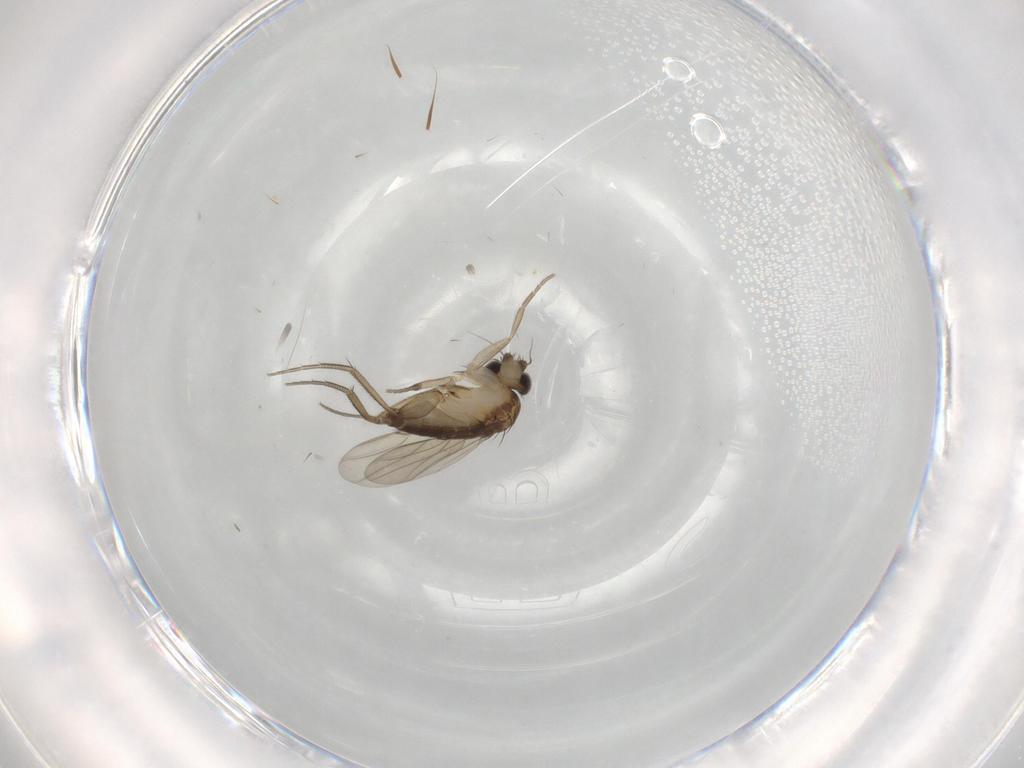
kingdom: Animalia
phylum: Arthropoda
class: Insecta
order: Diptera
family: Phoridae
